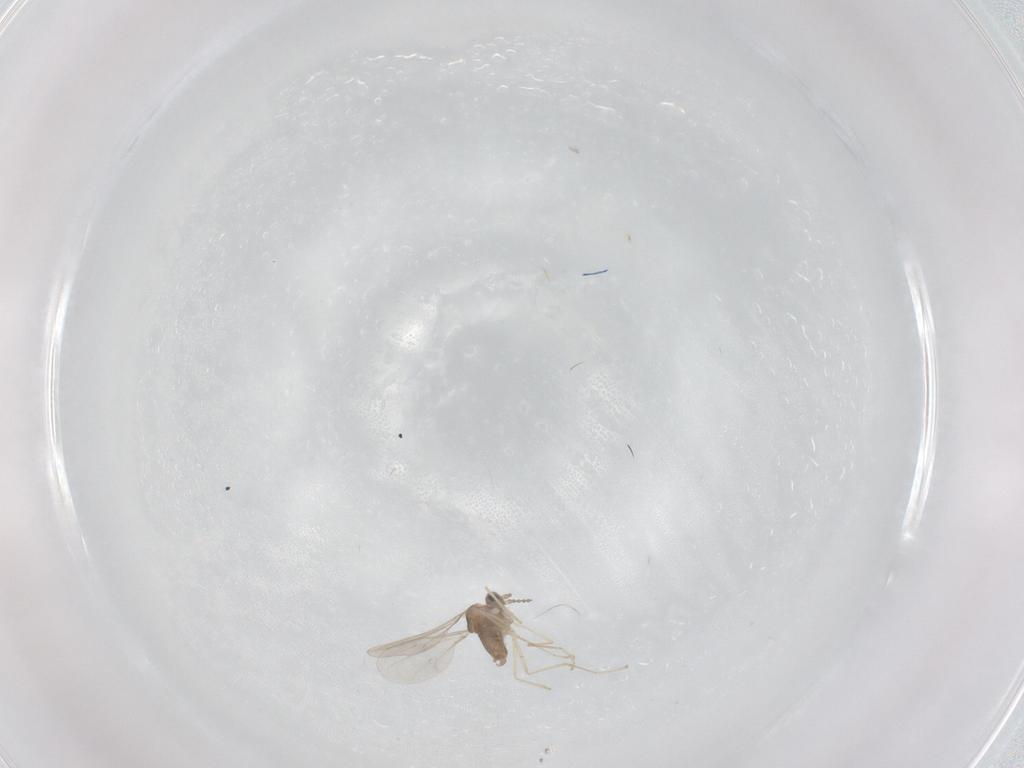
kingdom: Animalia
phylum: Arthropoda
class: Insecta
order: Diptera
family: Cecidomyiidae
